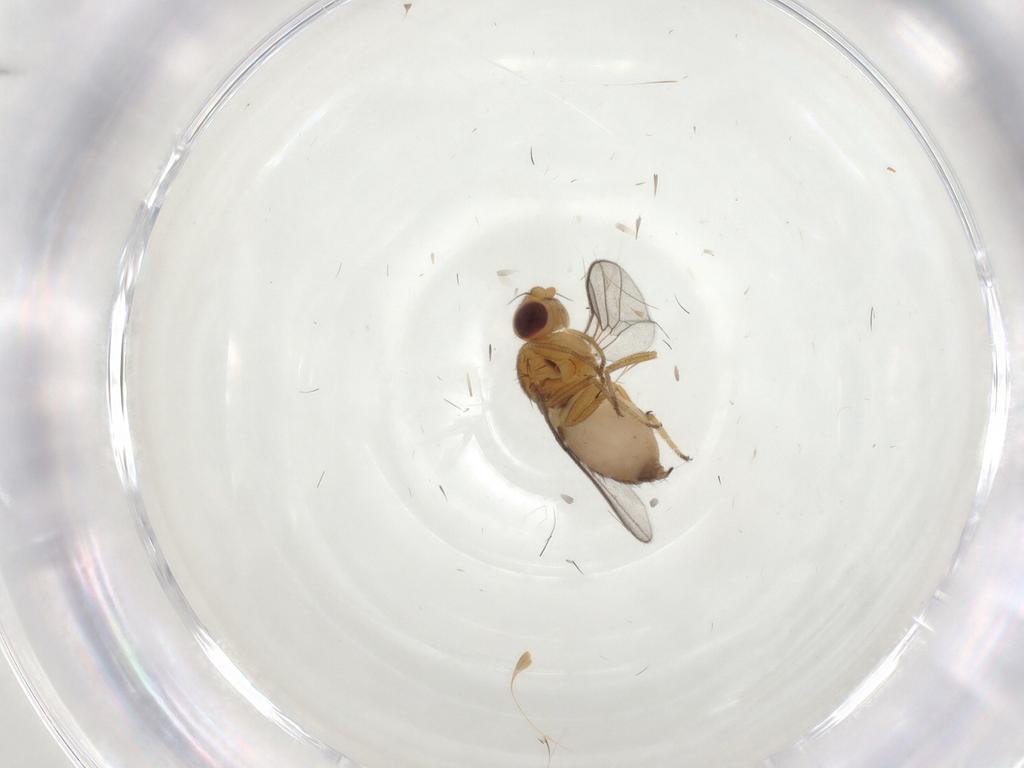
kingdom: Animalia
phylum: Arthropoda
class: Insecta
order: Diptera
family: Chloropidae
